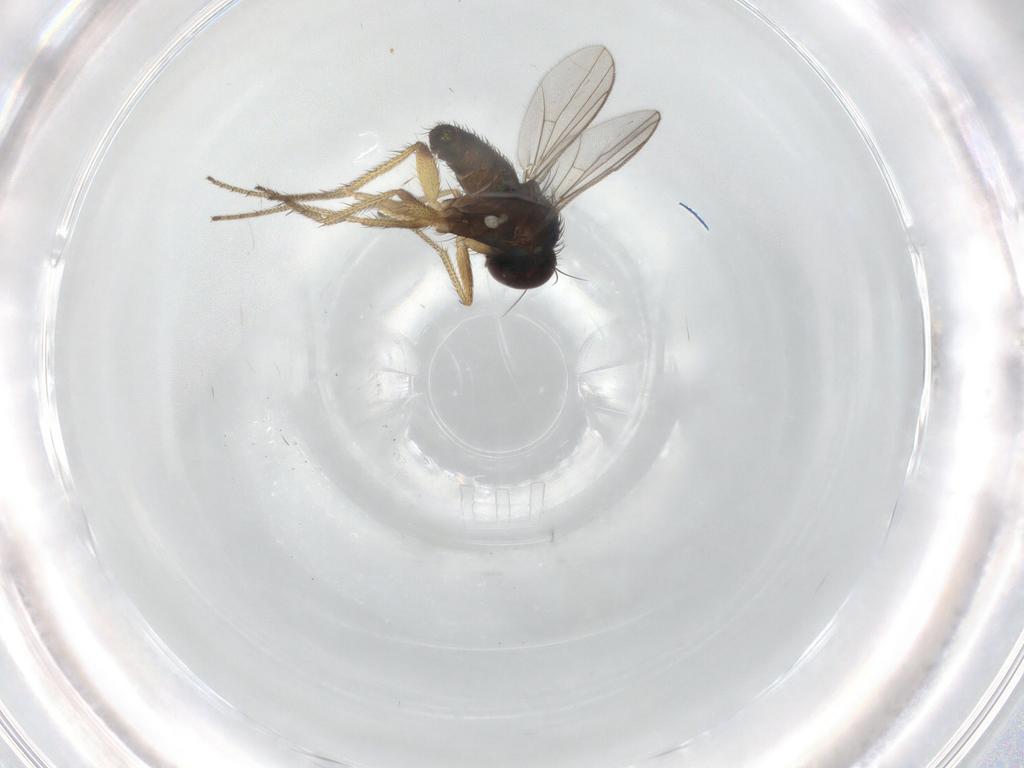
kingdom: Animalia
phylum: Arthropoda
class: Insecta
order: Diptera
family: Dolichopodidae
